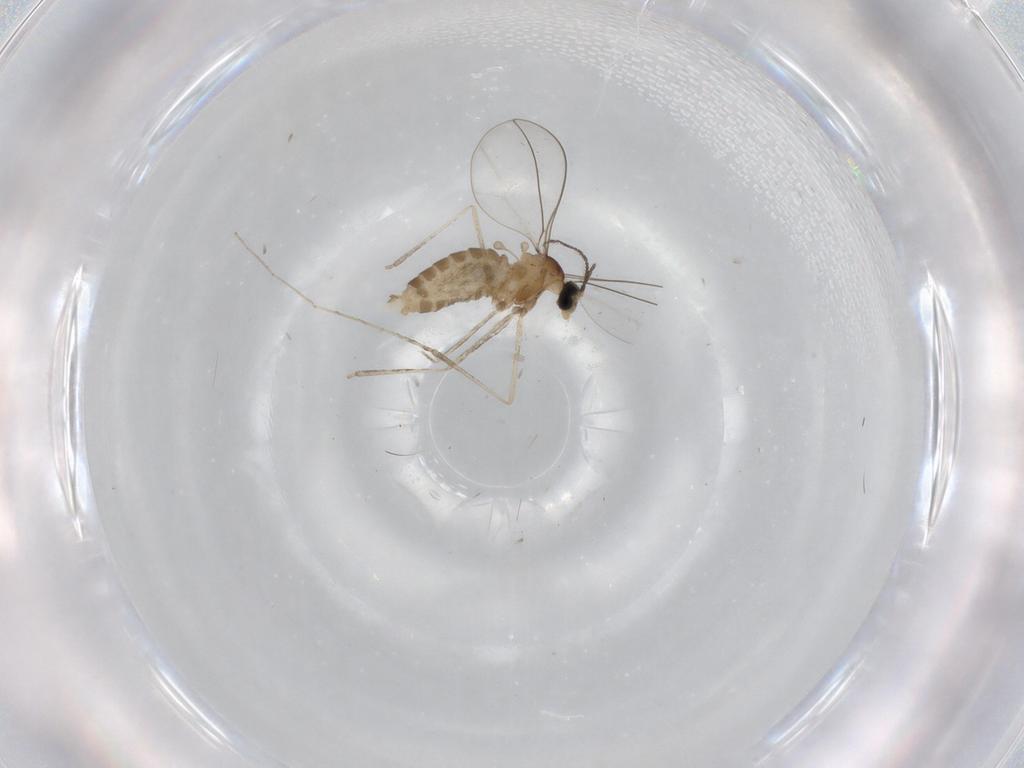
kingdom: Animalia
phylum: Arthropoda
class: Insecta
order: Diptera
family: Cecidomyiidae
